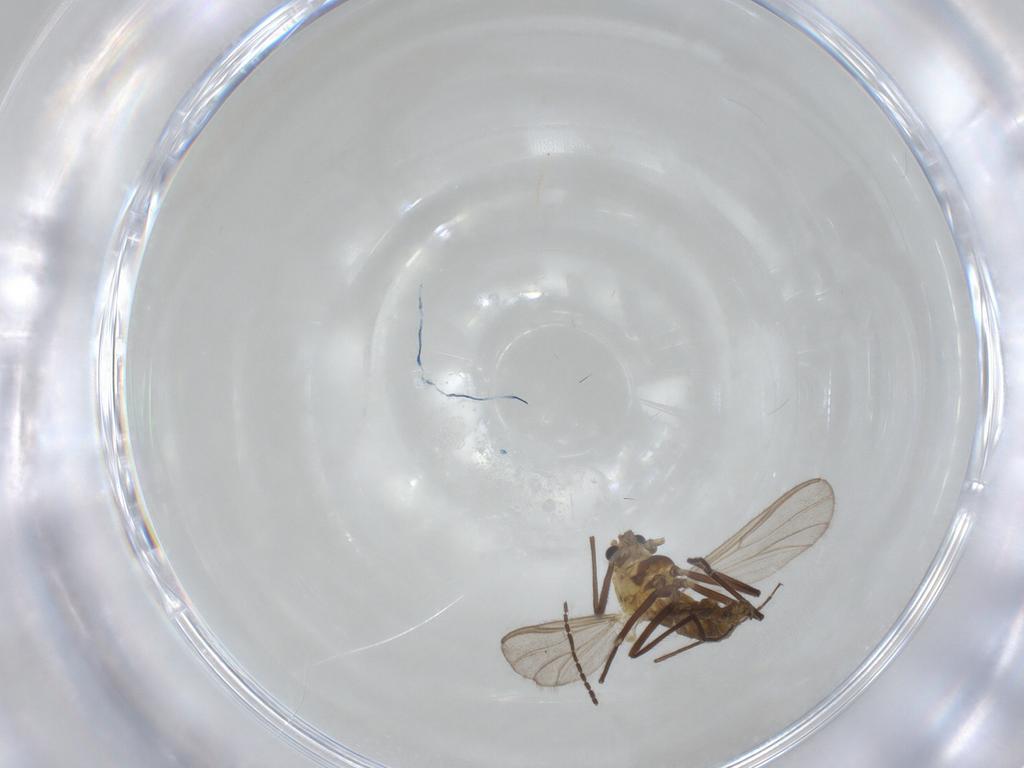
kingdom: Animalia
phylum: Arthropoda
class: Insecta
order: Diptera
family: Chironomidae
